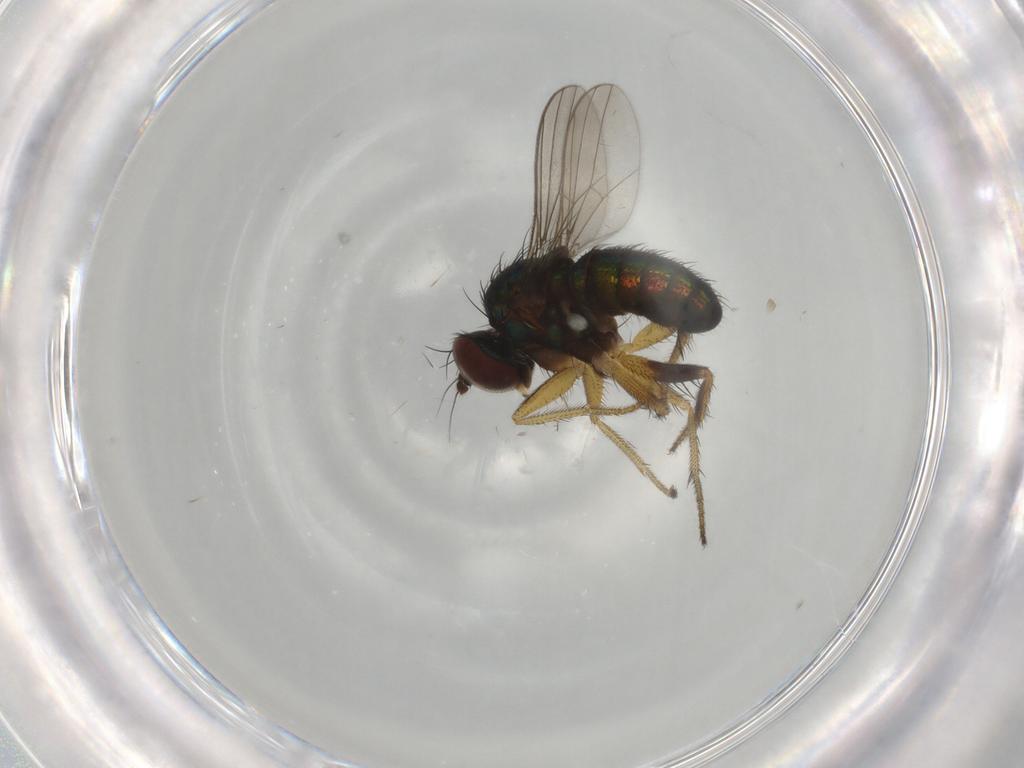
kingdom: Animalia
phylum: Arthropoda
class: Insecta
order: Diptera
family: Dolichopodidae
